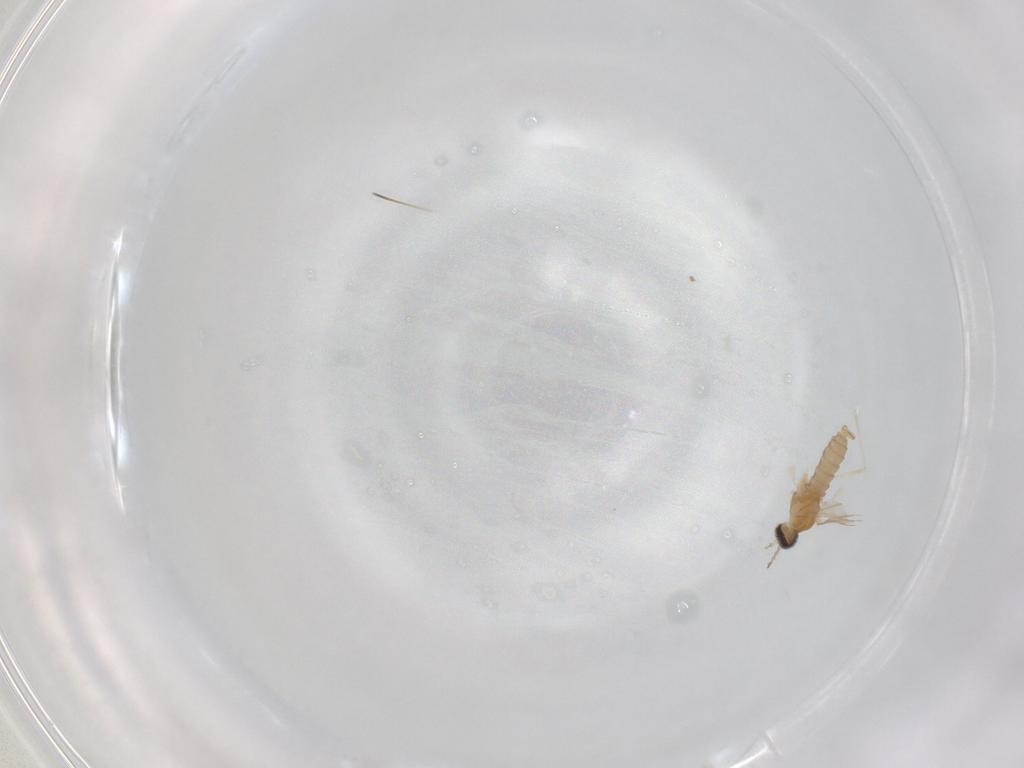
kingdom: Animalia
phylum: Arthropoda
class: Insecta
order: Diptera
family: Cecidomyiidae
